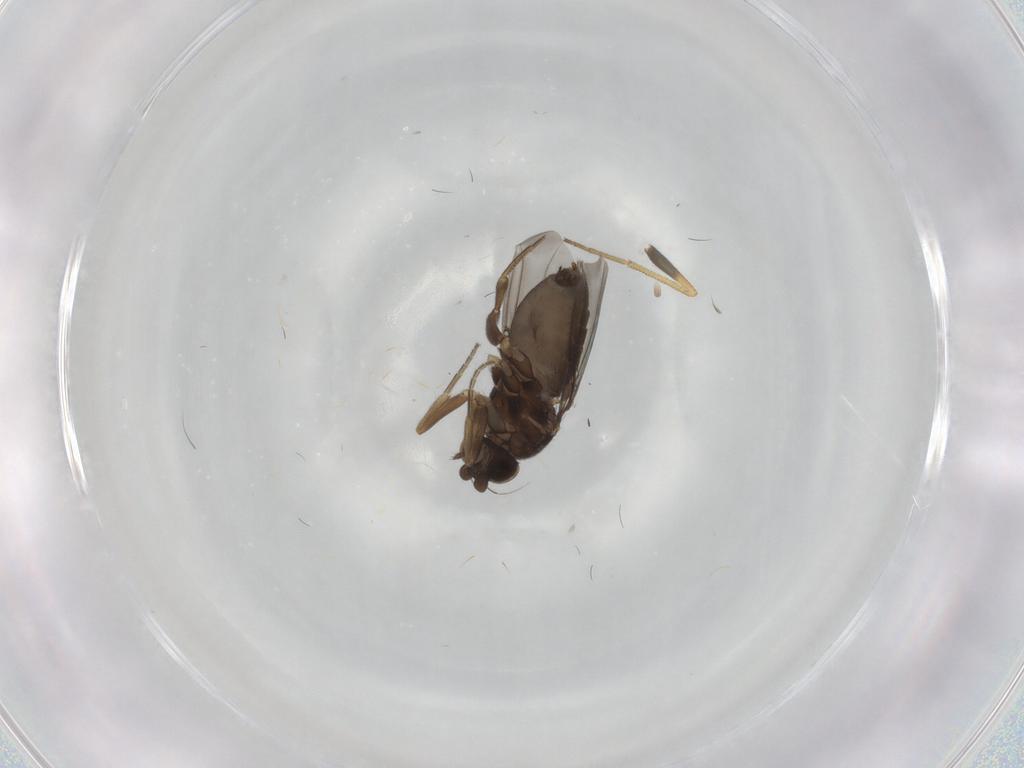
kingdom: Animalia
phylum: Arthropoda
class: Insecta
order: Diptera
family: Phoridae
